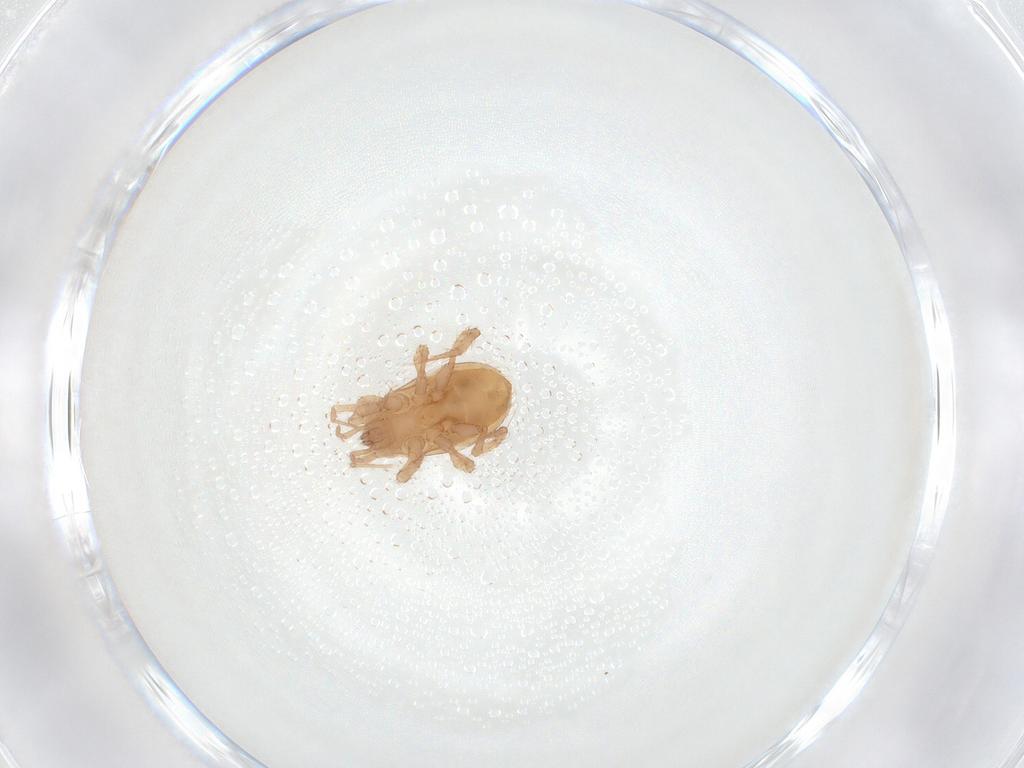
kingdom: Animalia
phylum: Arthropoda
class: Arachnida
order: Mesostigmata
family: Veigaiidae
